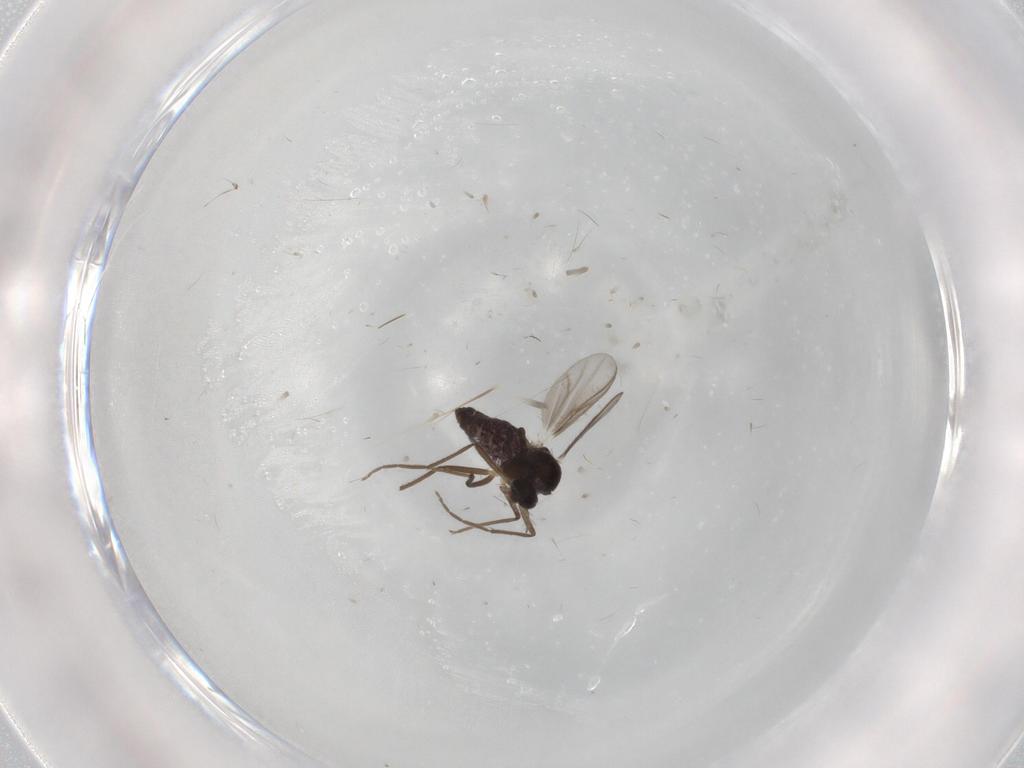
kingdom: Animalia
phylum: Arthropoda
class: Insecta
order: Diptera
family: Chironomidae
